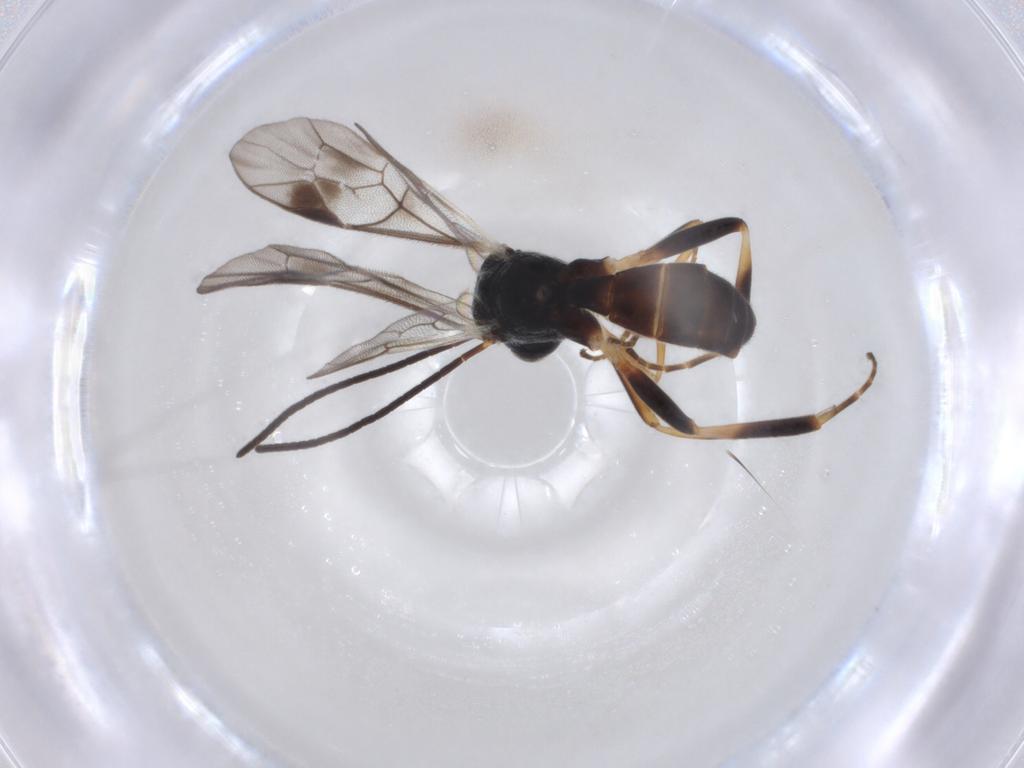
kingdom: Animalia
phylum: Arthropoda
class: Insecta
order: Hymenoptera
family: Ichneumonidae
